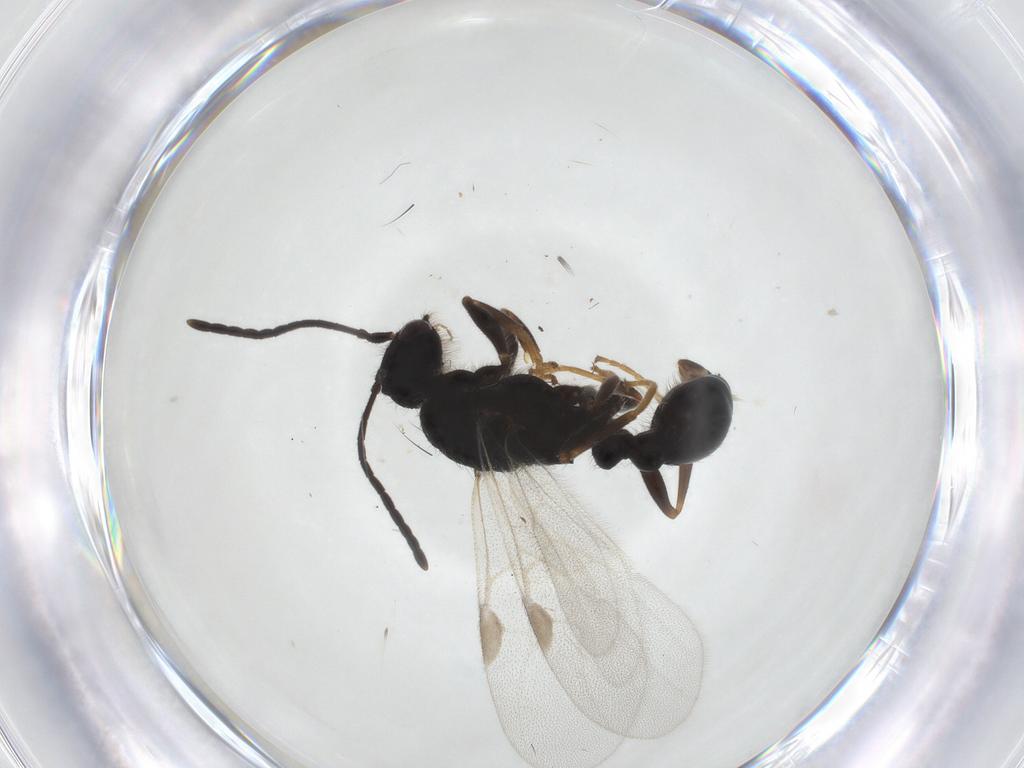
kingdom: Animalia
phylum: Arthropoda
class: Insecta
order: Hymenoptera
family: Formicidae
